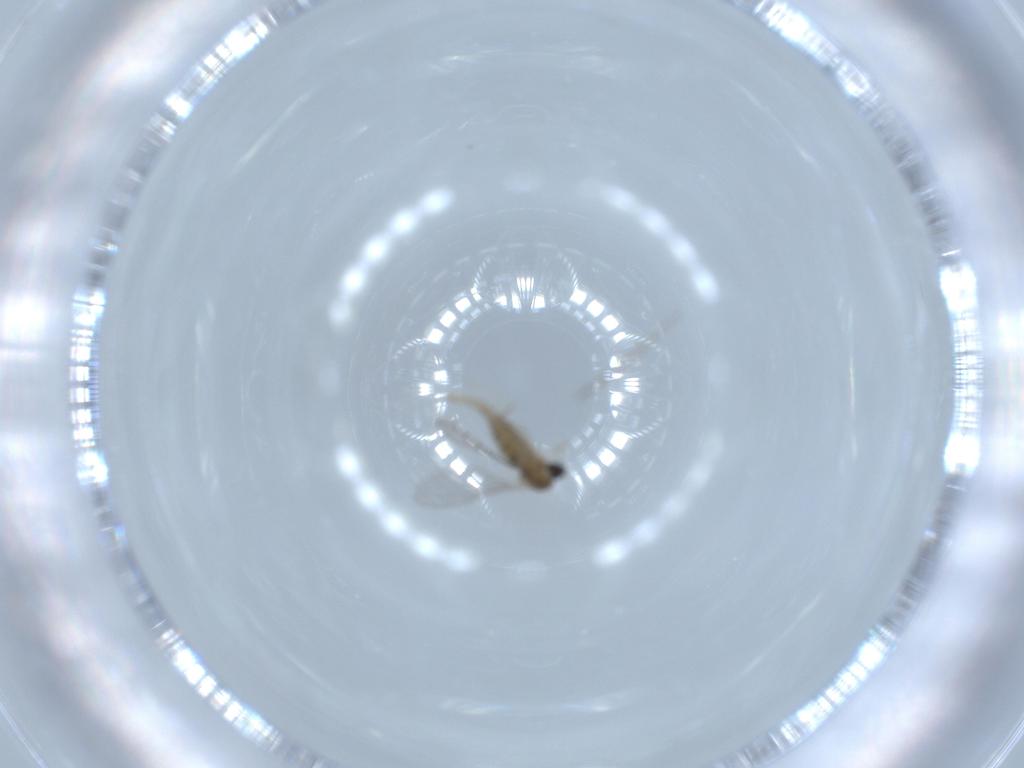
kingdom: Animalia
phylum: Arthropoda
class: Insecta
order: Diptera
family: Cecidomyiidae
